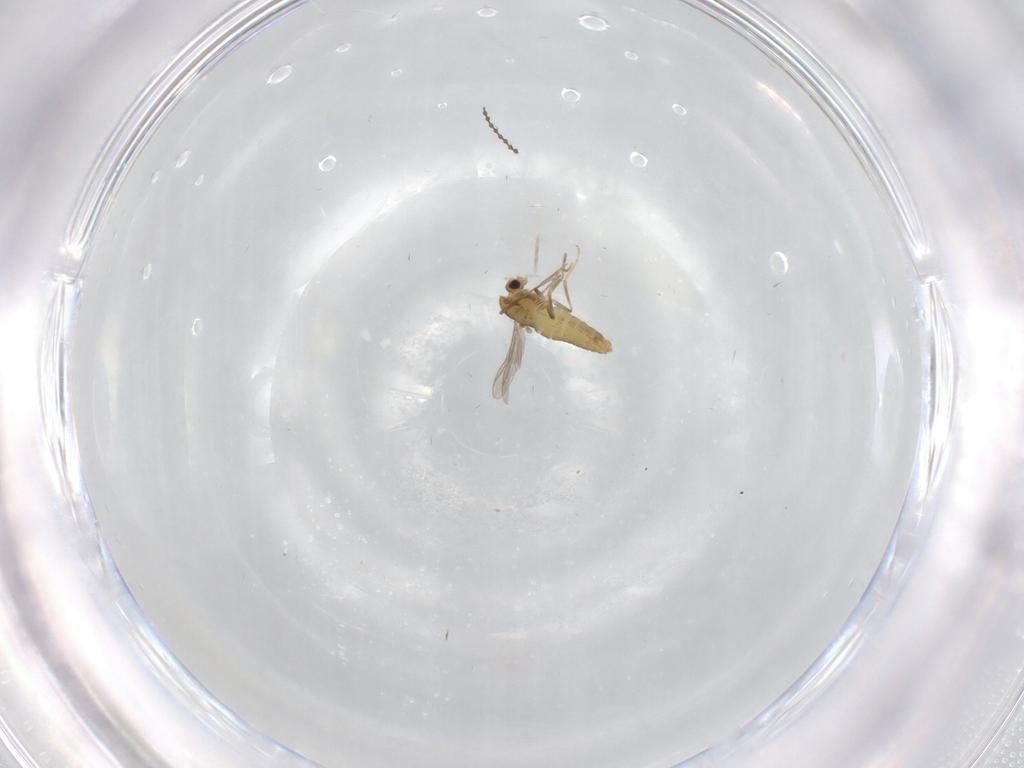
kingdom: Animalia
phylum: Arthropoda
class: Insecta
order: Diptera
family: Chironomidae
